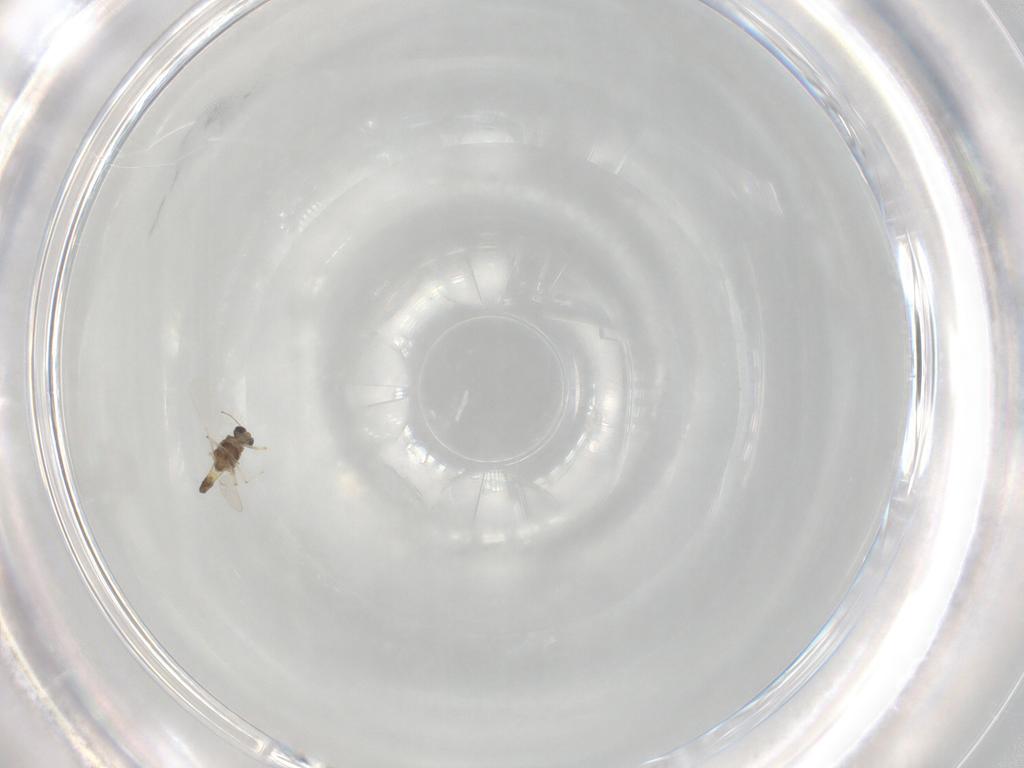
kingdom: Animalia
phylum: Arthropoda
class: Insecta
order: Diptera
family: Chironomidae
